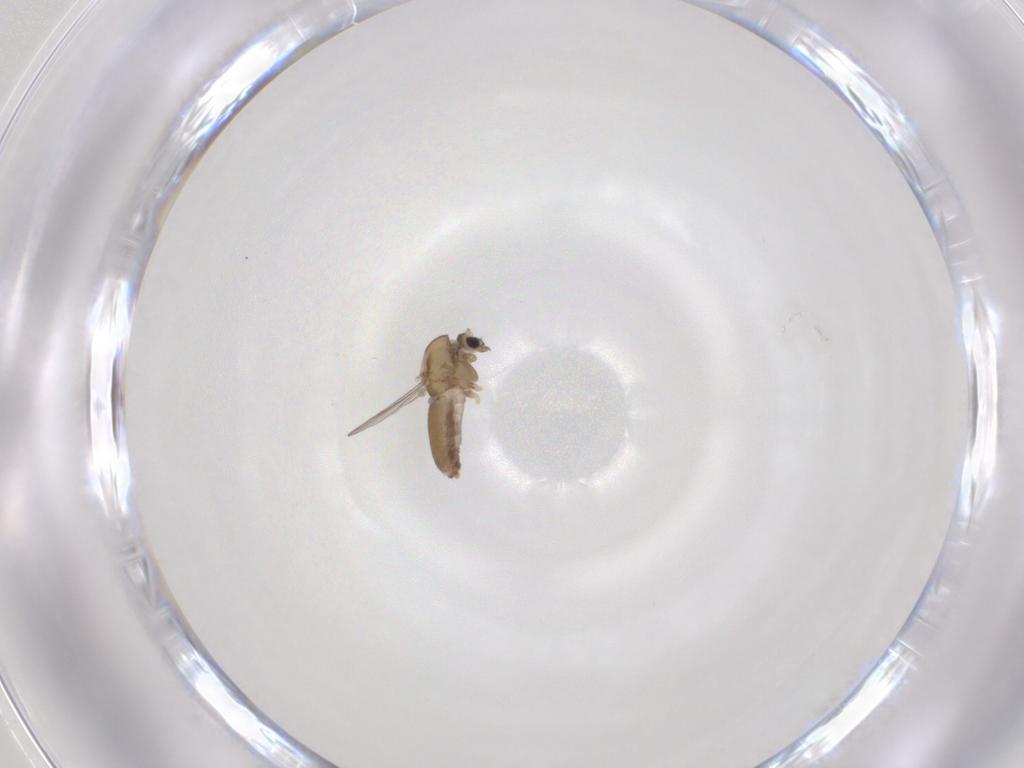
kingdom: Animalia
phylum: Arthropoda
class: Insecta
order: Diptera
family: Chironomidae
